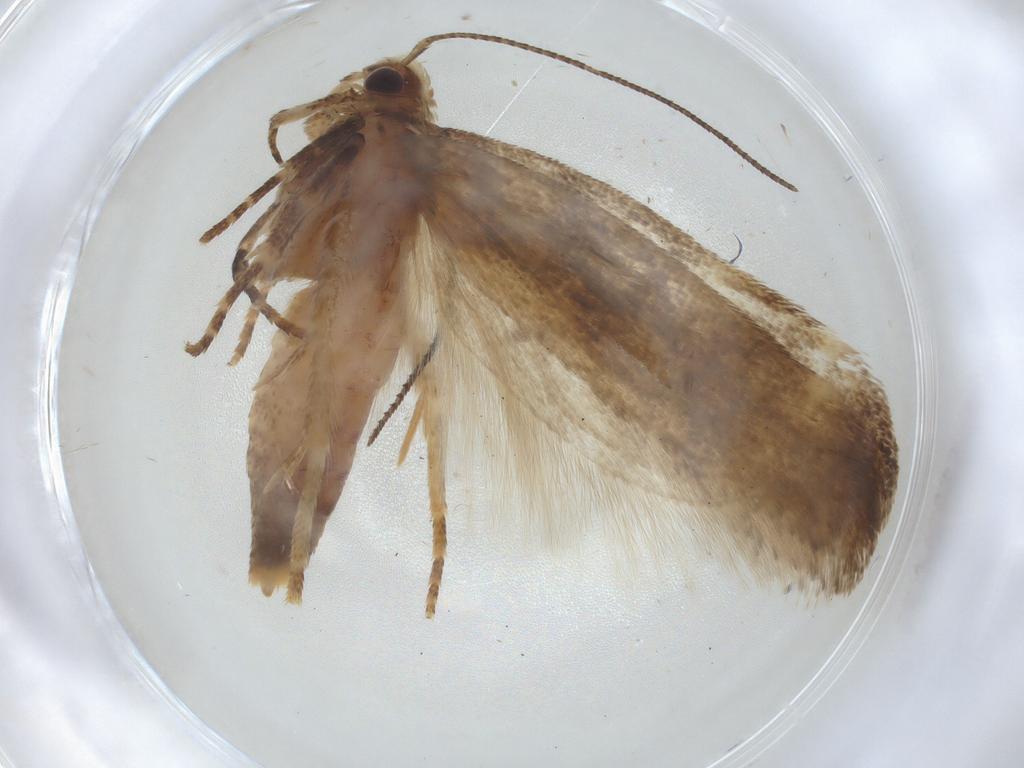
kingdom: Animalia
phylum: Arthropoda
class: Insecta
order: Lepidoptera
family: Gelechiidae
